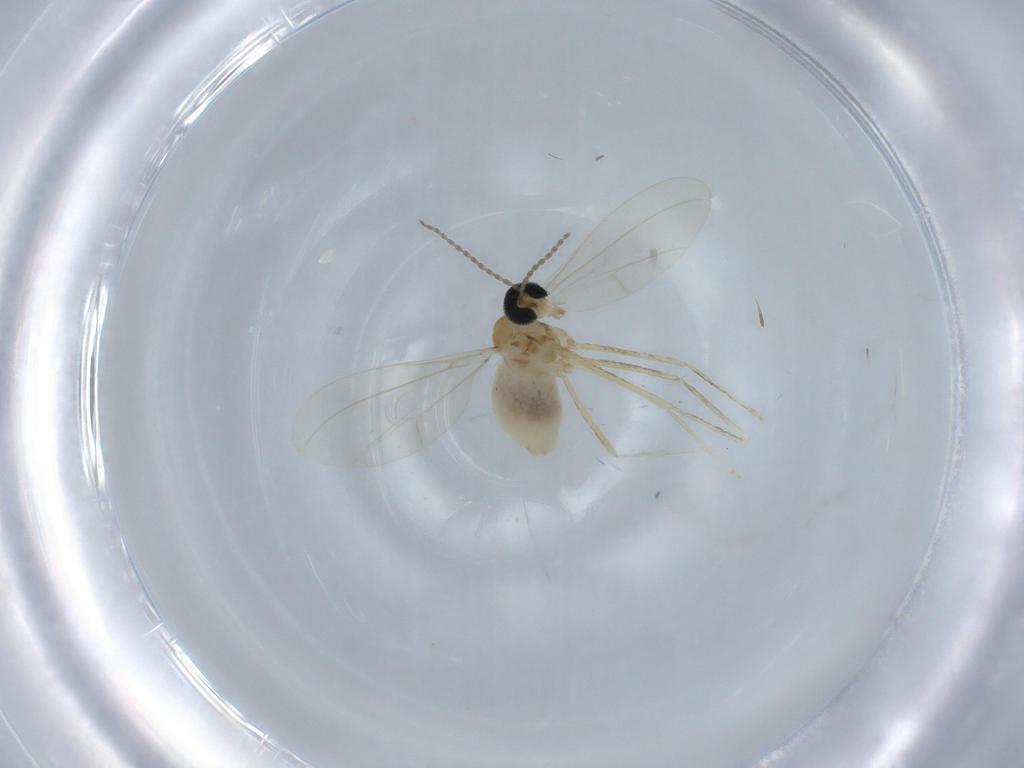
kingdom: Animalia
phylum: Arthropoda
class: Insecta
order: Diptera
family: Cecidomyiidae
